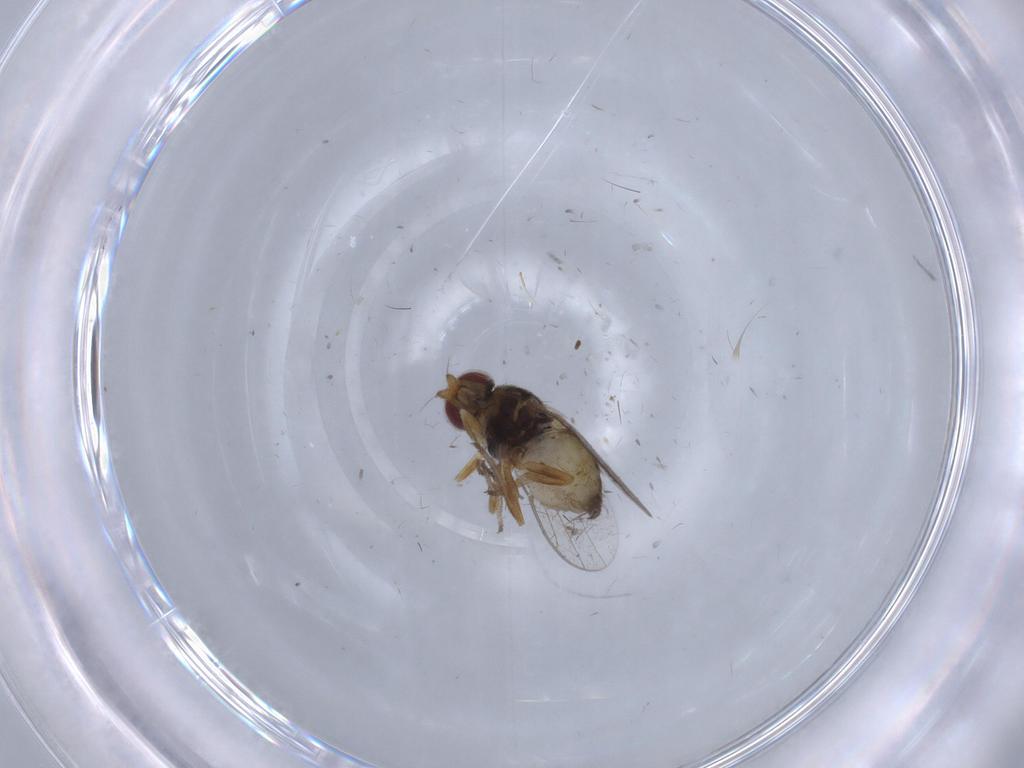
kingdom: Animalia
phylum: Arthropoda
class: Insecta
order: Diptera
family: Chloropidae
